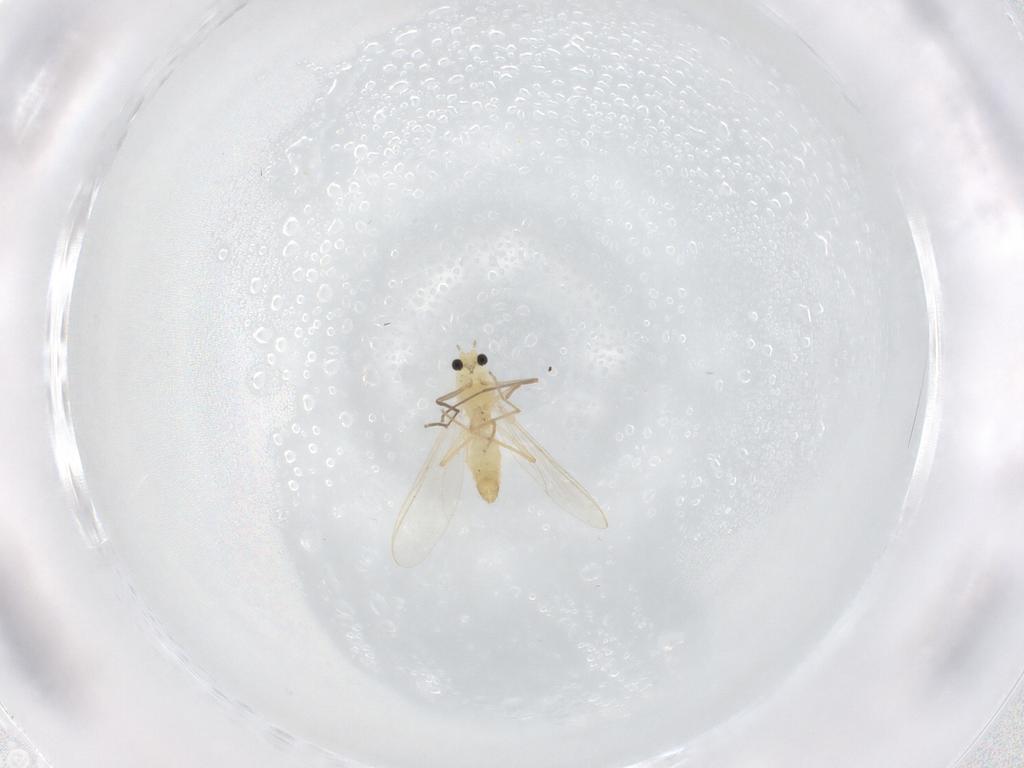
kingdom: Animalia
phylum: Arthropoda
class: Insecta
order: Diptera
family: Chironomidae
